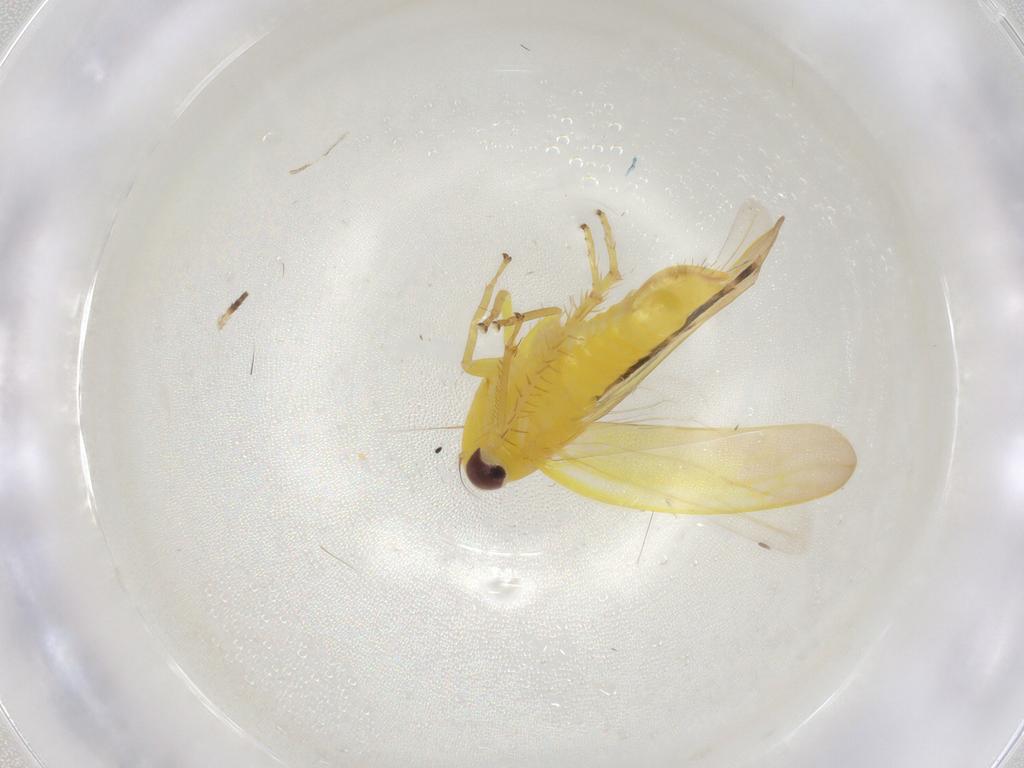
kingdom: Animalia
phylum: Arthropoda
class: Insecta
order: Hemiptera
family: Cicadellidae
